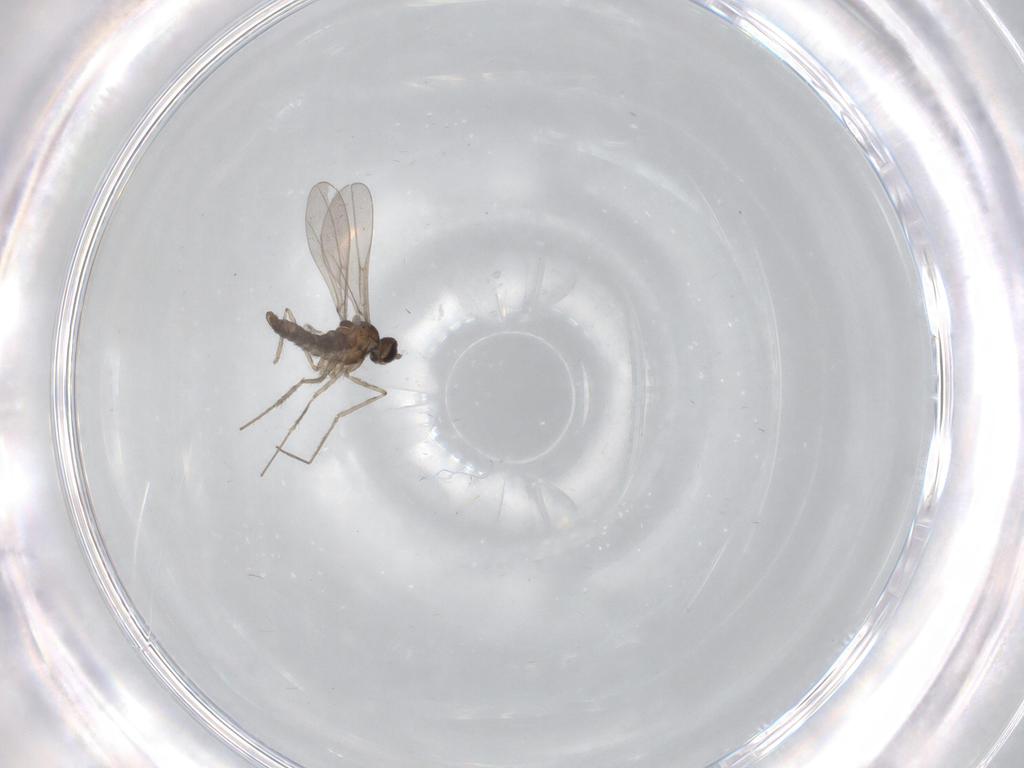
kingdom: Animalia
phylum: Arthropoda
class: Insecta
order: Diptera
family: Cecidomyiidae
